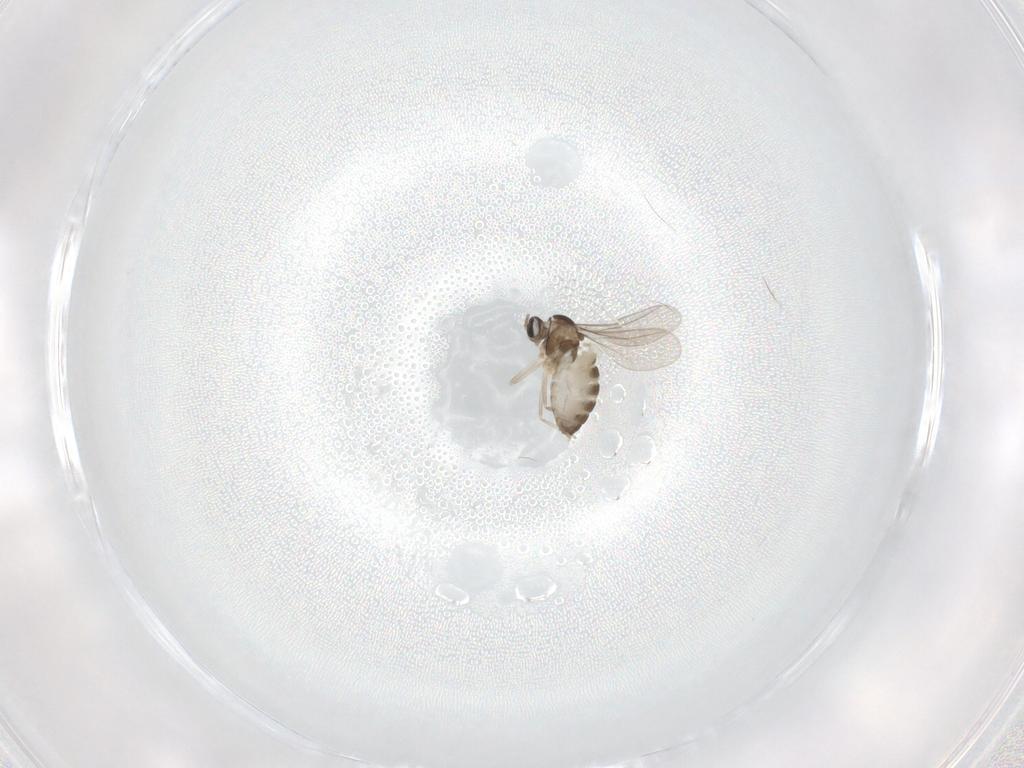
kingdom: Animalia
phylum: Arthropoda
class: Insecta
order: Diptera
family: Cecidomyiidae
